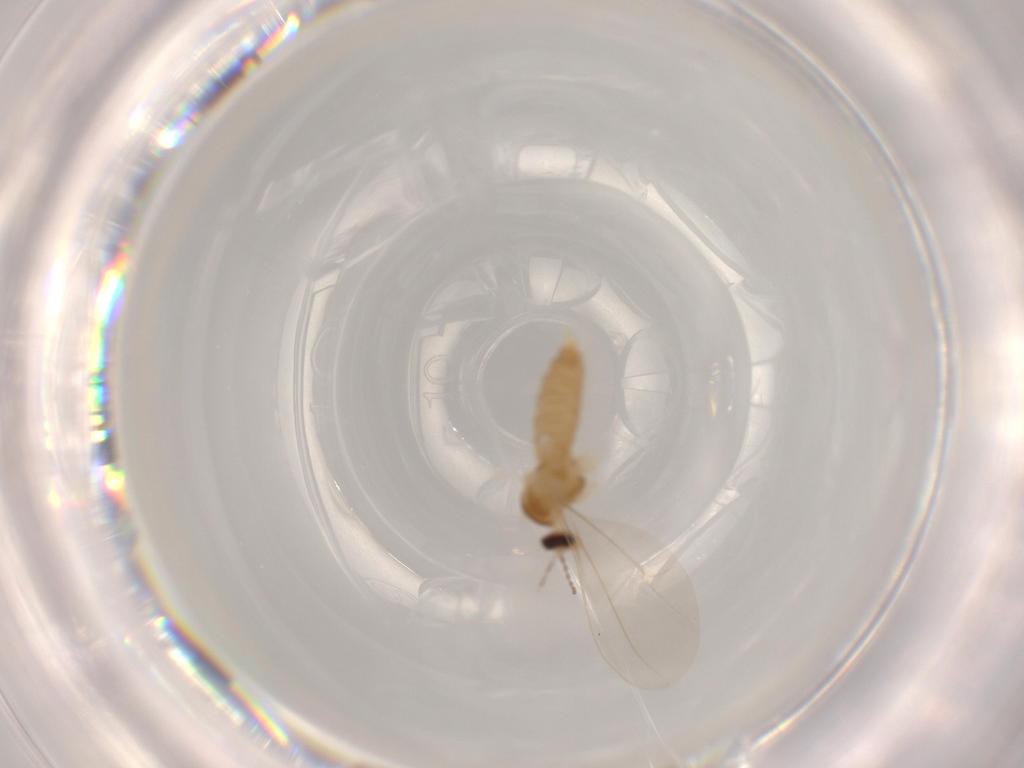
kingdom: Animalia
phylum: Arthropoda
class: Insecta
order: Diptera
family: Cecidomyiidae
